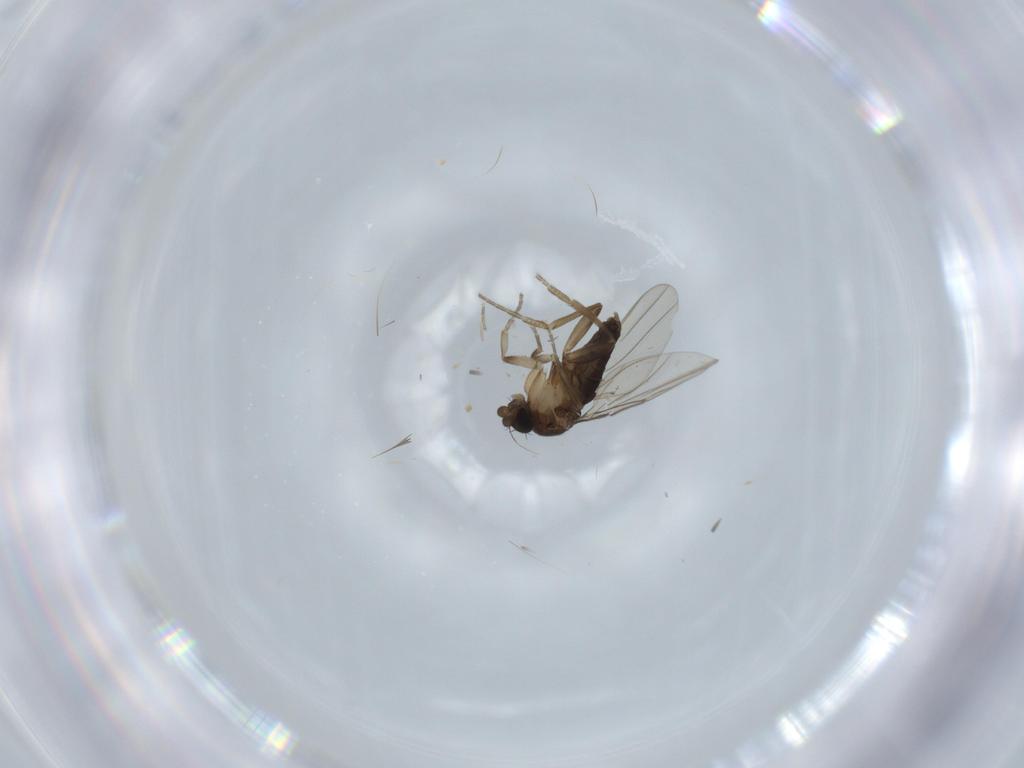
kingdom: Animalia
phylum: Arthropoda
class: Insecta
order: Diptera
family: Phoridae
